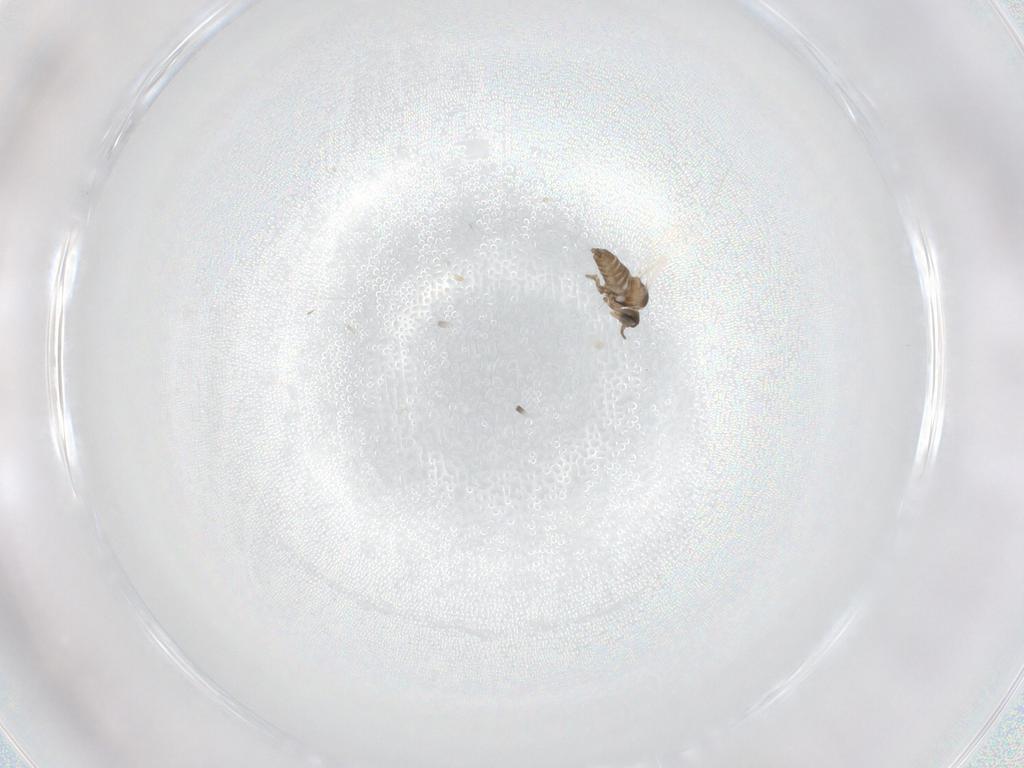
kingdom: Animalia
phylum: Arthropoda
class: Insecta
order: Diptera
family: Cecidomyiidae
